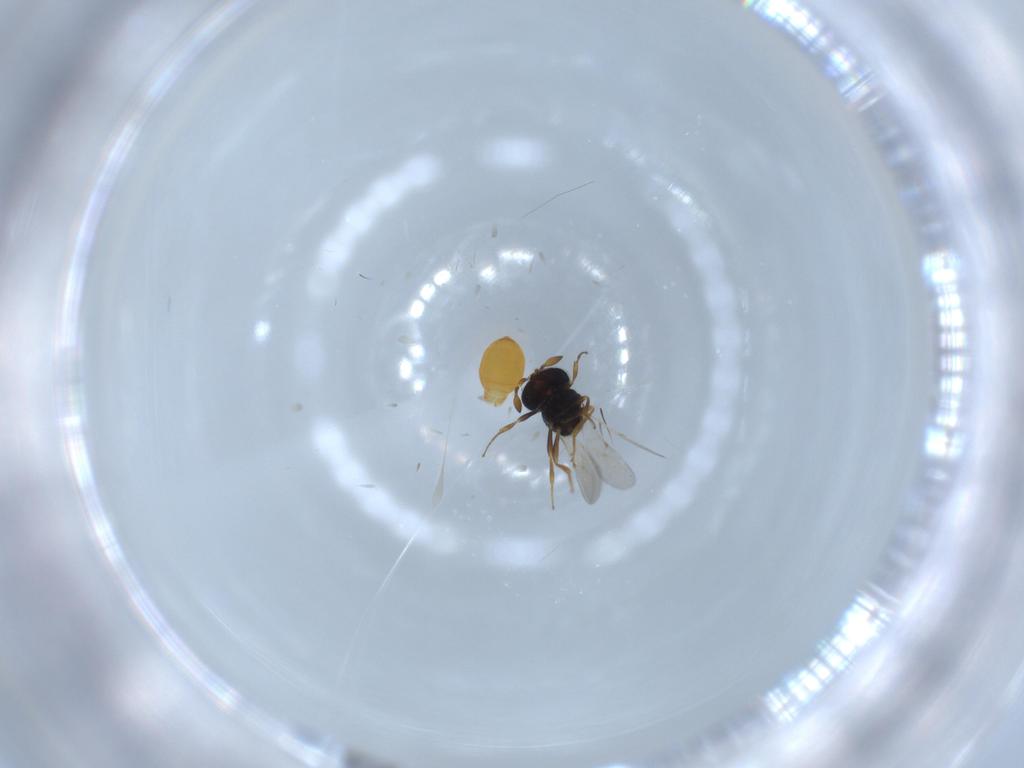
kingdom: Animalia
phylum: Arthropoda
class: Insecta
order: Hymenoptera
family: Scelionidae
